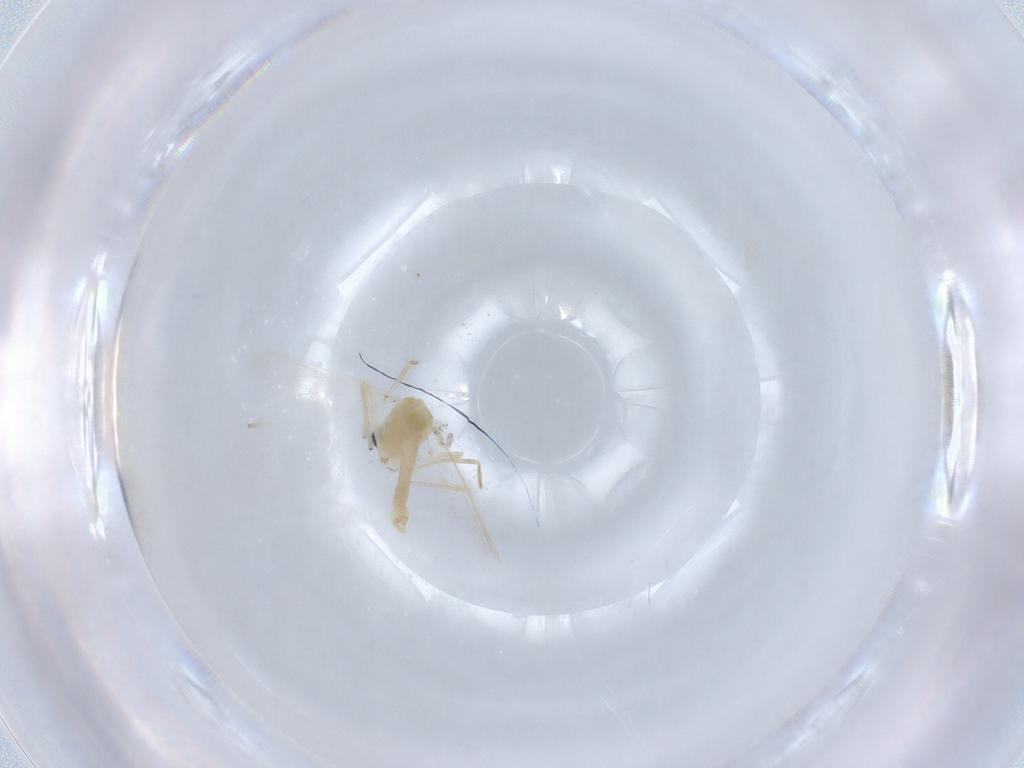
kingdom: Animalia
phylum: Arthropoda
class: Insecta
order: Diptera
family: Chironomidae
